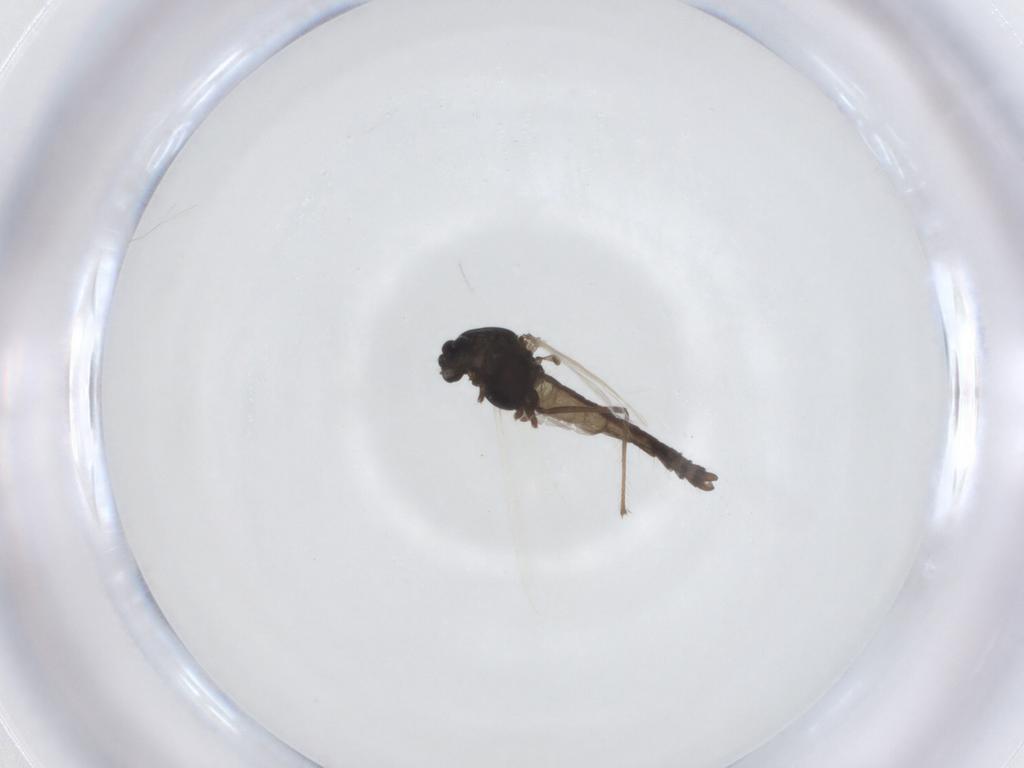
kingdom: Animalia
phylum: Arthropoda
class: Insecta
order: Diptera
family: Chironomidae
